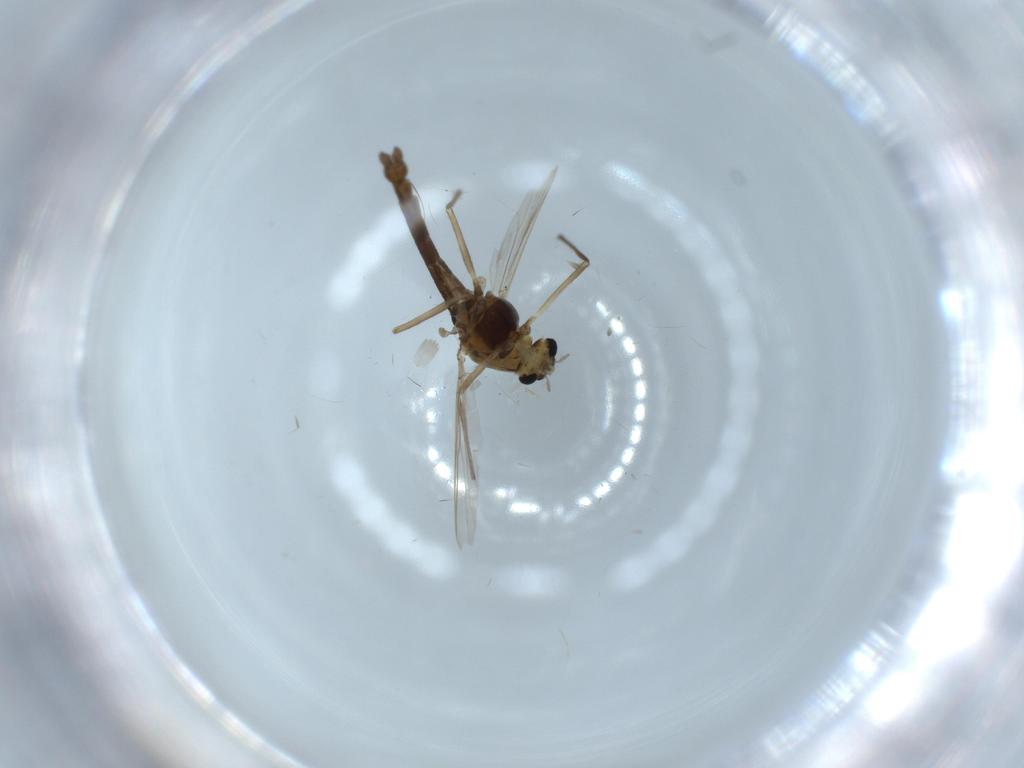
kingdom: Animalia
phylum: Arthropoda
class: Insecta
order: Diptera
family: Chironomidae
